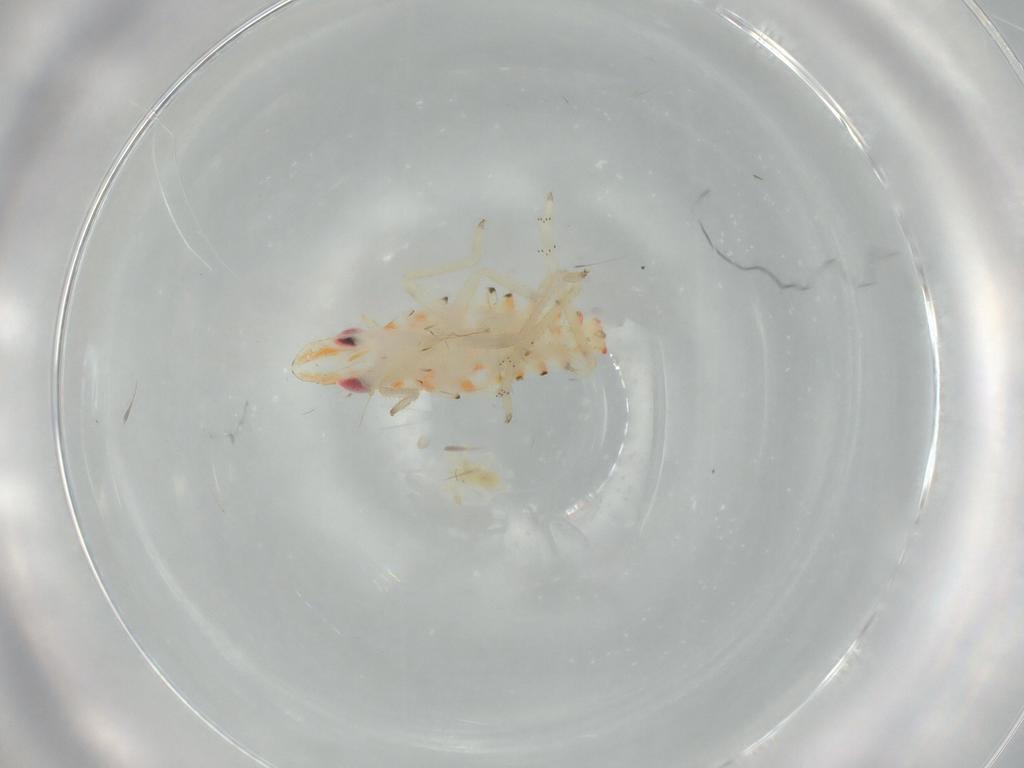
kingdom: Animalia
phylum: Arthropoda
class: Insecta
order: Hemiptera
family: Tropiduchidae
